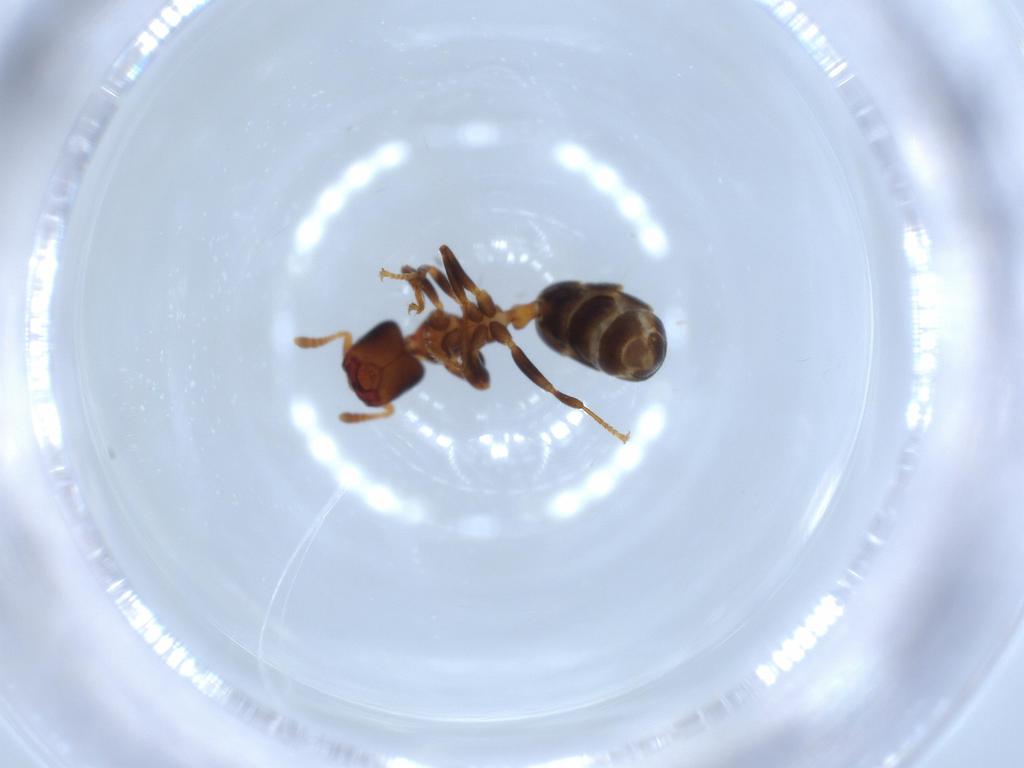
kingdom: Animalia
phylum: Arthropoda
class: Insecta
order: Hymenoptera
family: Formicidae
